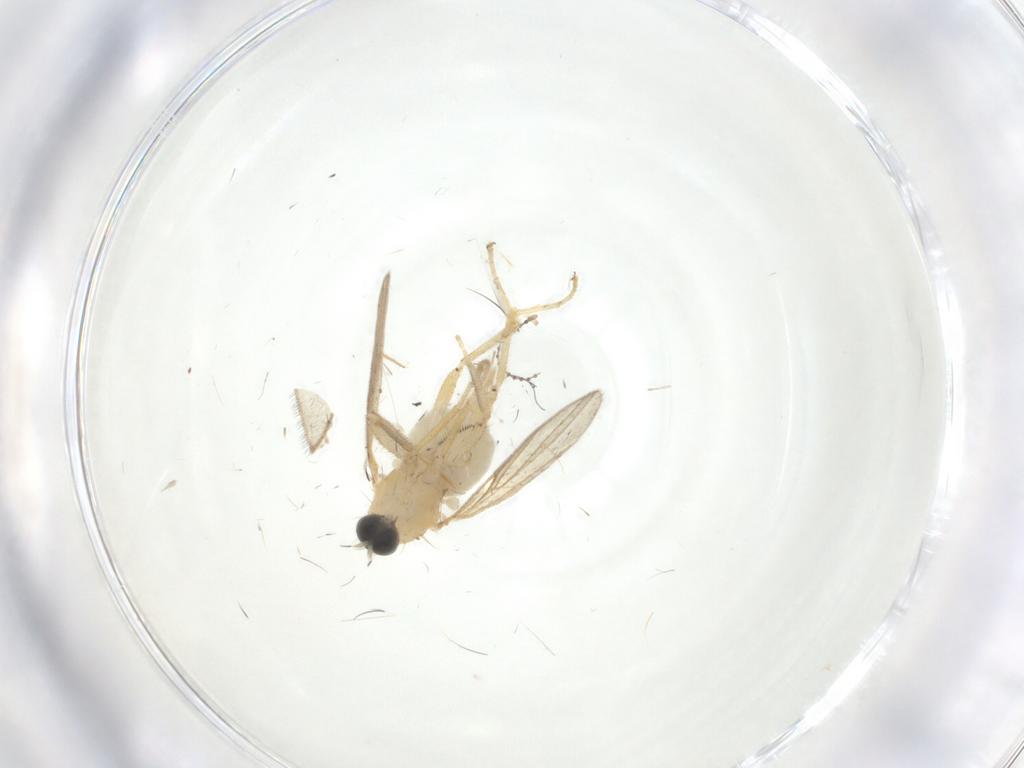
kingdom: Animalia
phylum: Arthropoda
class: Insecta
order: Diptera
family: Cecidomyiidae
